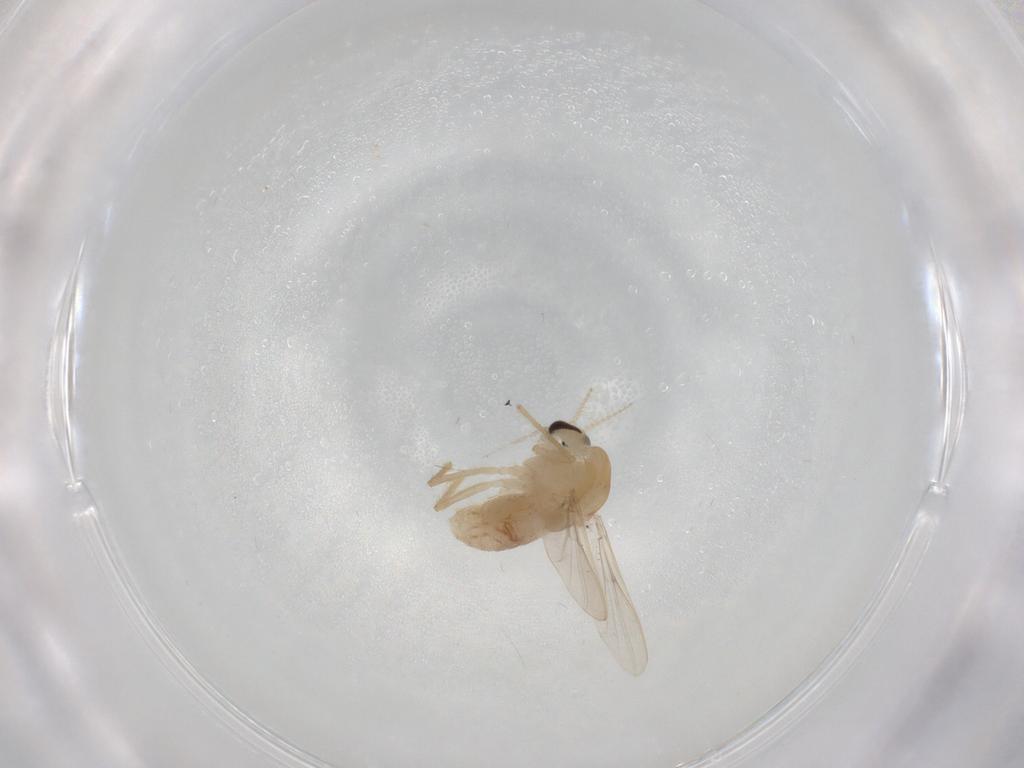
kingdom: Animalia
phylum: Arthropoda
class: Insecta
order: Diptera
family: Chironomidae
